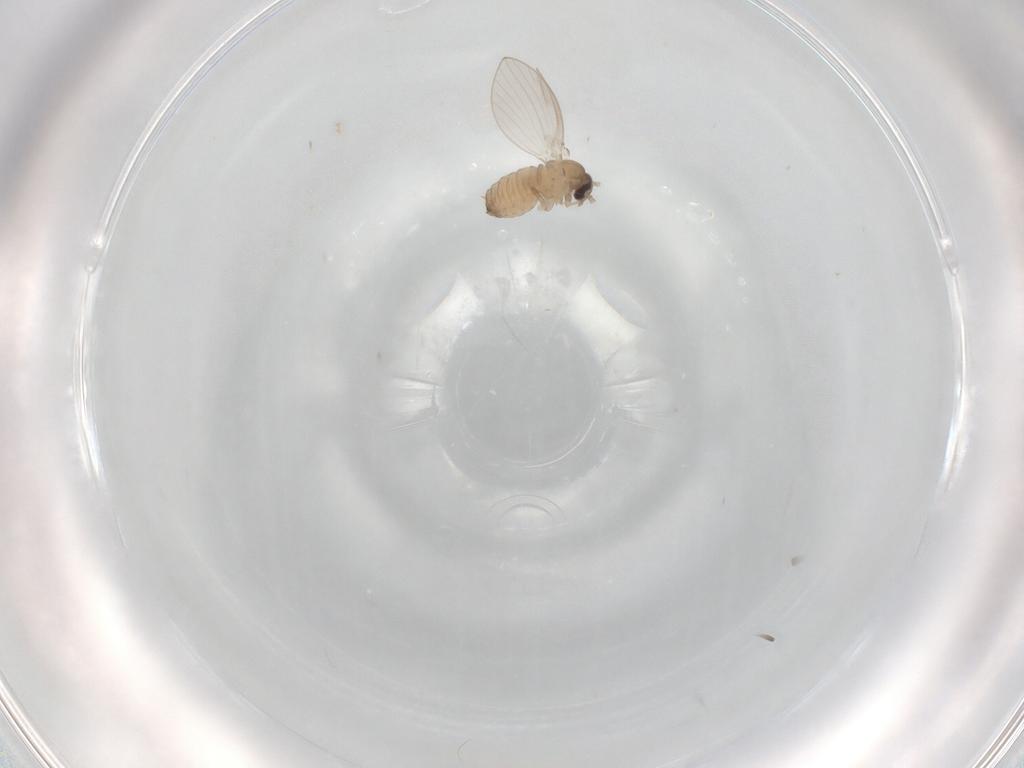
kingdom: Animalia
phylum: Arthropoda
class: Insecta
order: Diptera
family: Psychodidae
